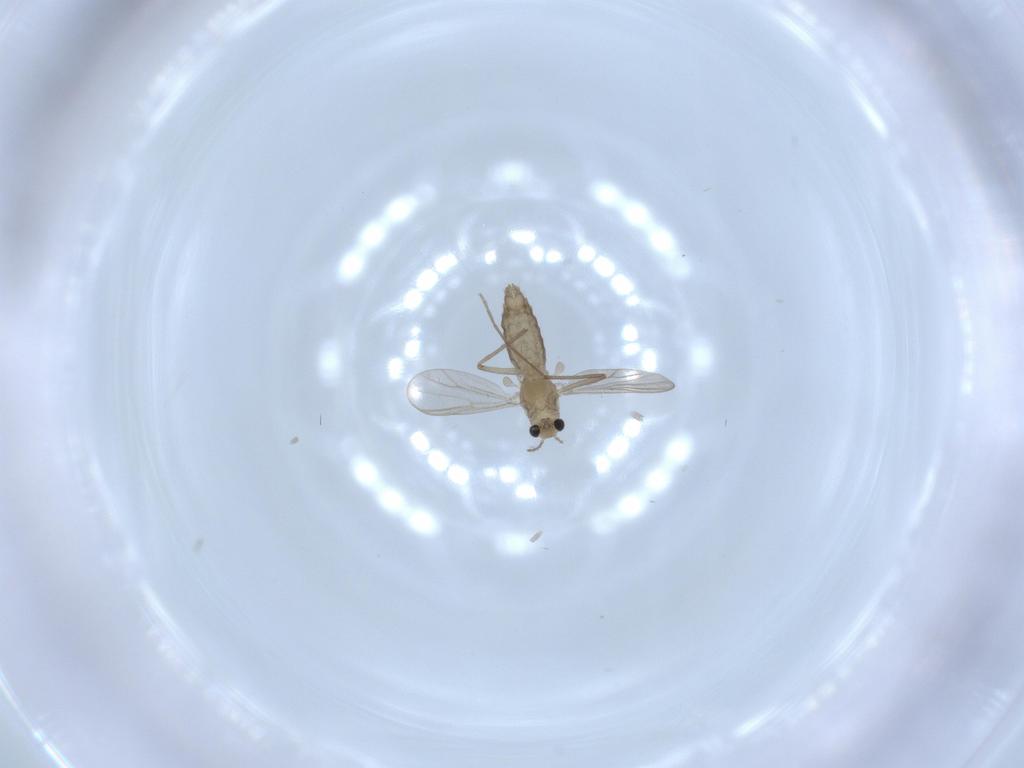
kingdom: Animalia
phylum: Arthropoda
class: Insecta
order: Diptera
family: Chironomidae
